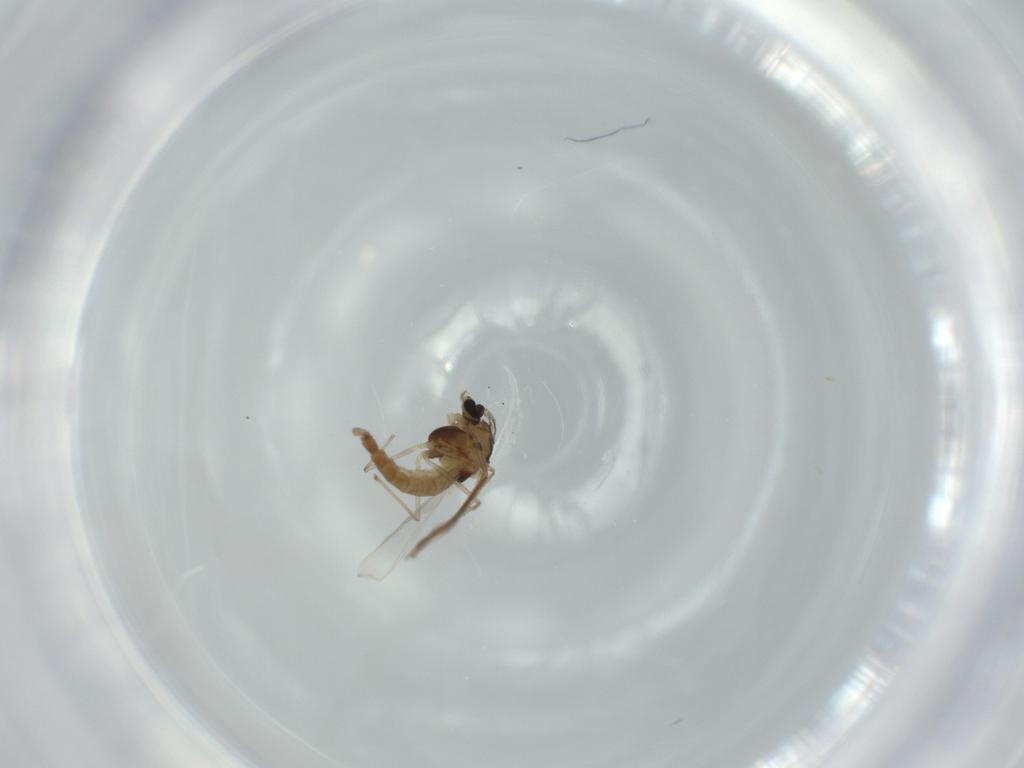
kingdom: Animalia
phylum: Arthropoda
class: Insecta
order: Diptera
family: Chironomidae
